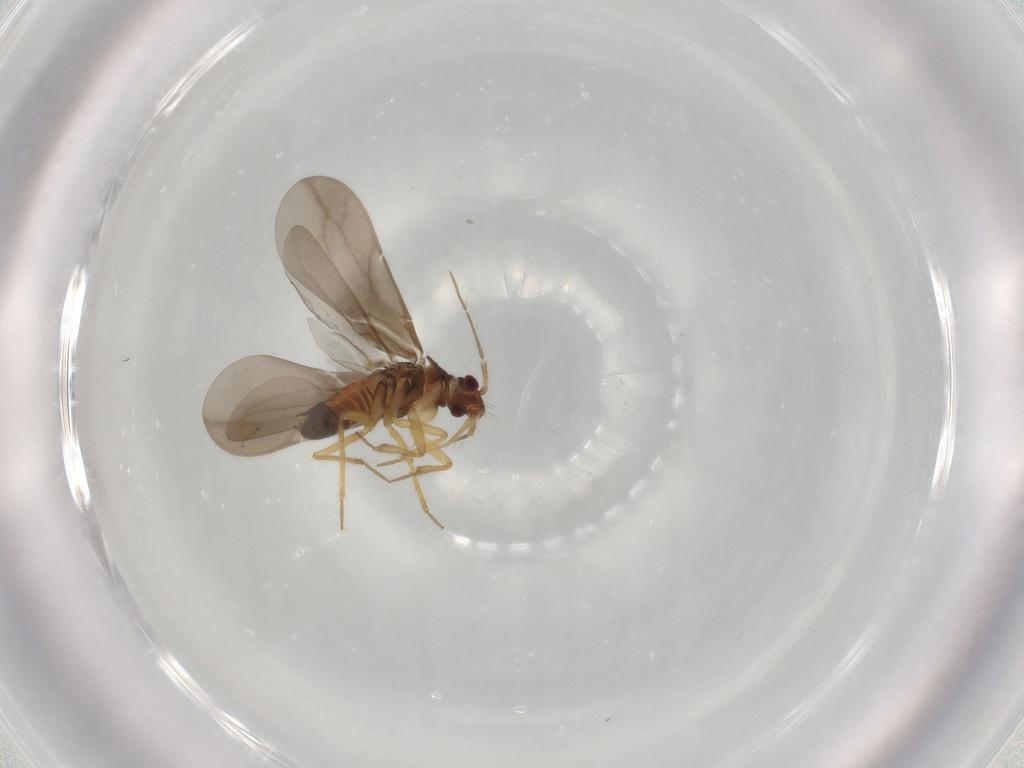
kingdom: Animalia
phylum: Arthropoda
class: Insecta
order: Hemiptera
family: Ceratocombidae
